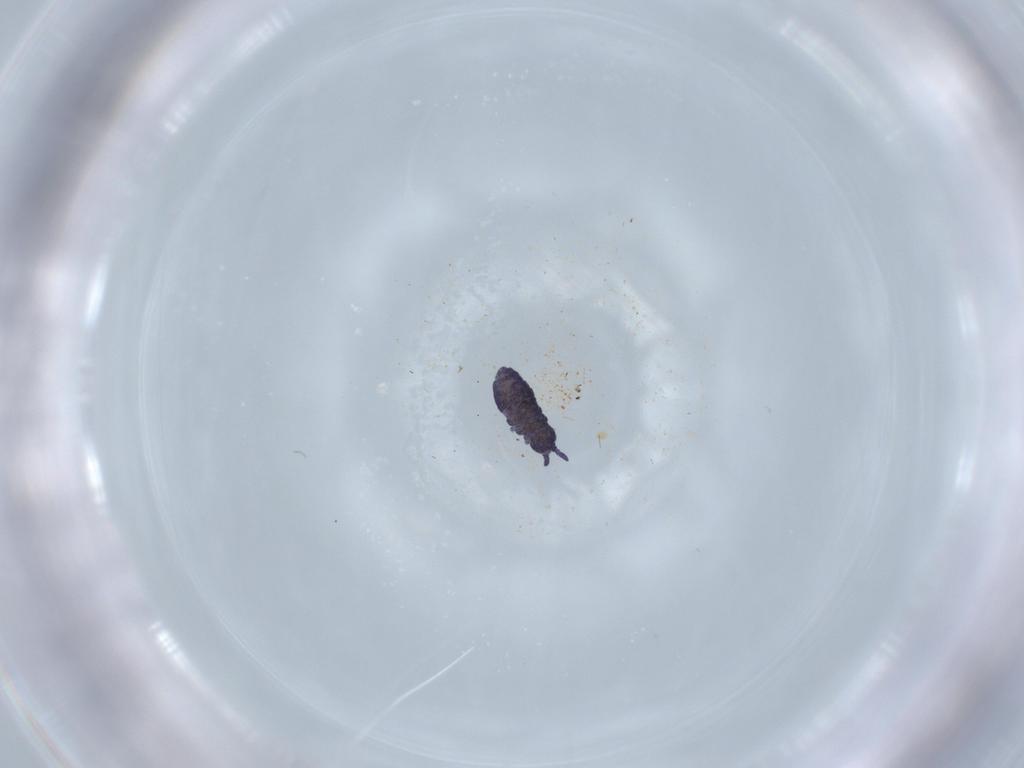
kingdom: Animalia
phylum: Arthropoda
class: Collembola
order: Poduromorpha
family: Brachystomellidae
